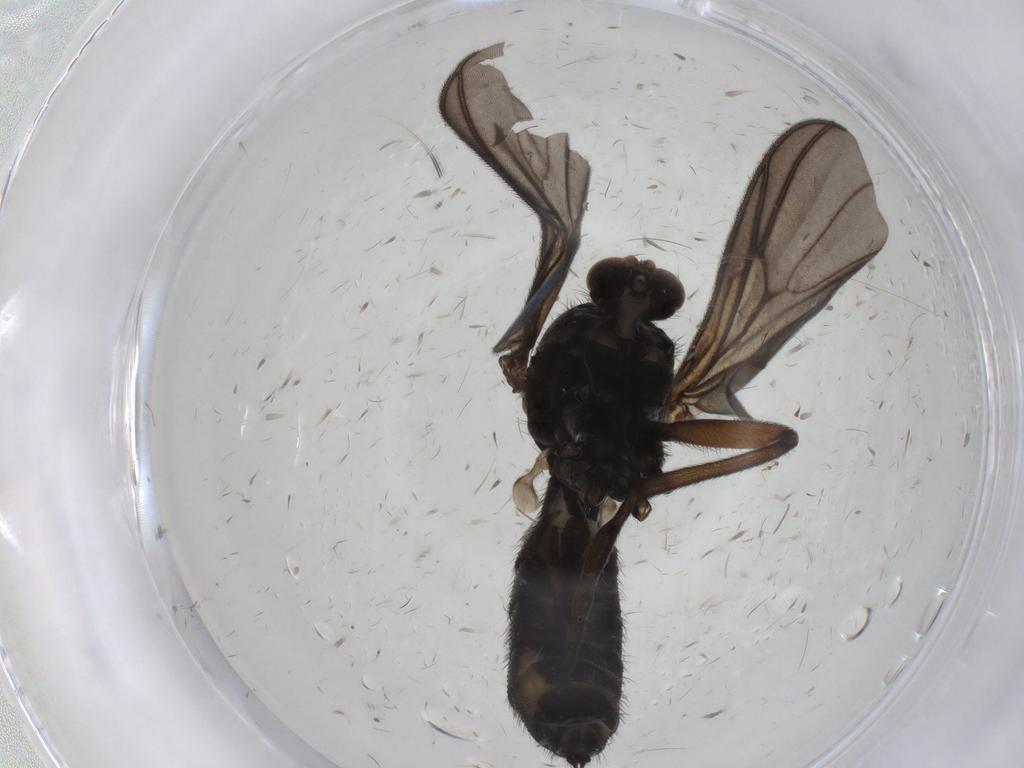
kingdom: Animalia
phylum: Arthropoda
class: Insecta
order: Diptera
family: Mycetophilidae
